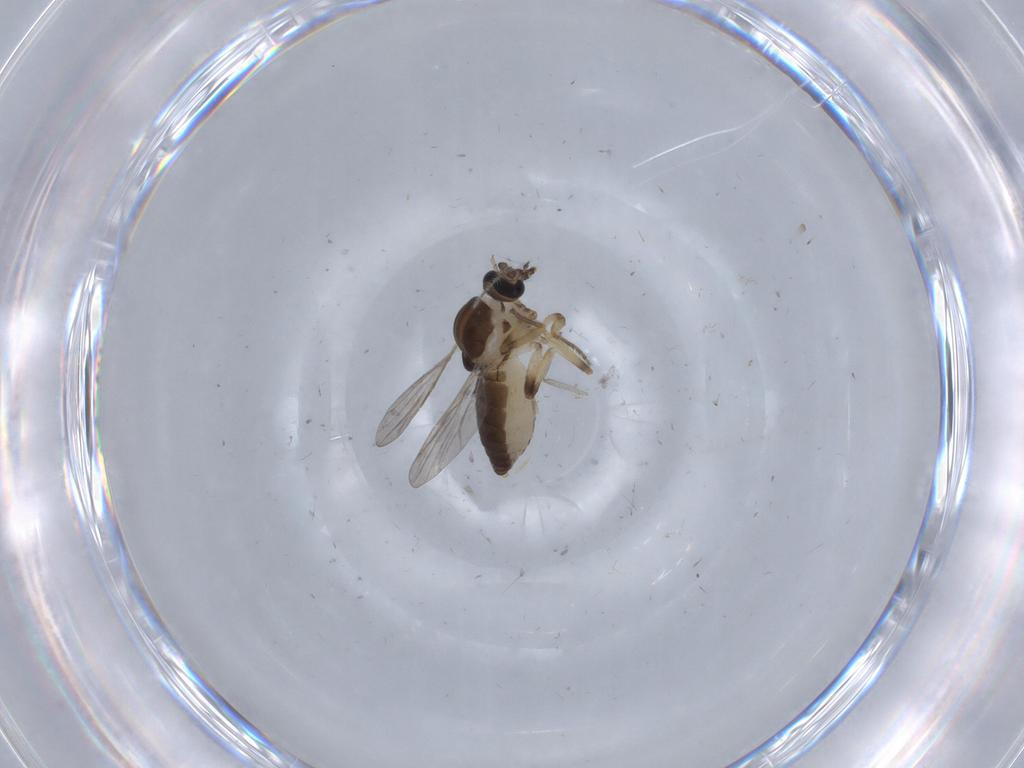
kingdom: Animalia
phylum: Arthropoda
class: Insecta
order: Diptera
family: Ceratopogonidae
